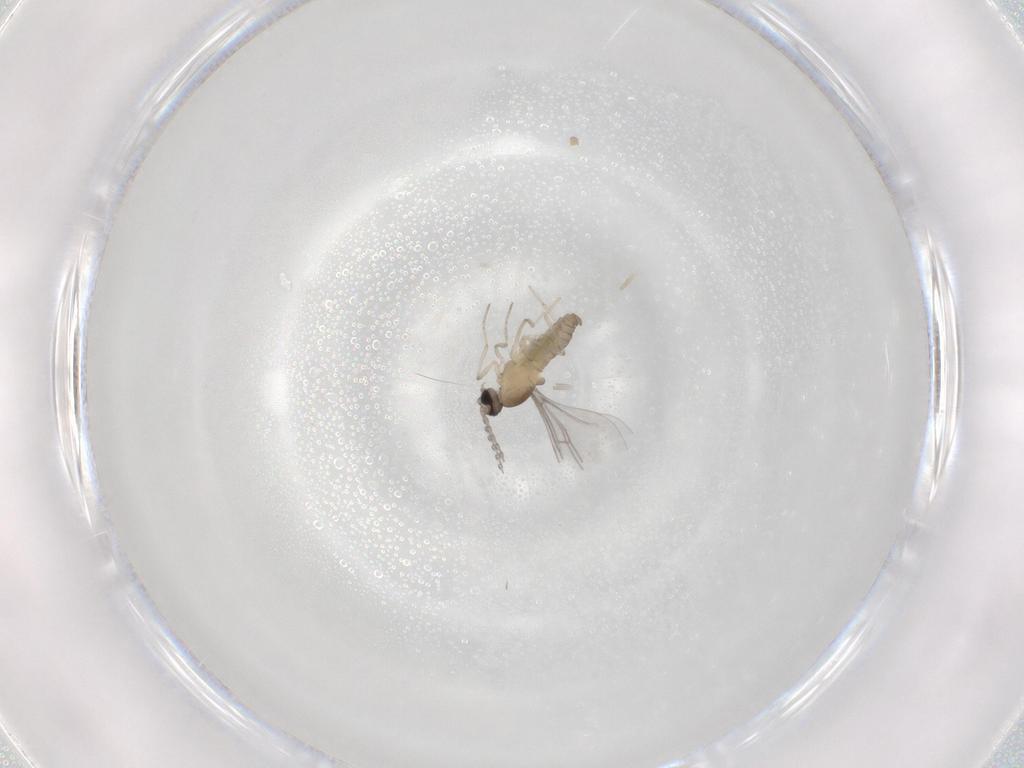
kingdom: Animalia
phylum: Arthropoda
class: Insecta
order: Diptera
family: Cecidomyiidae
